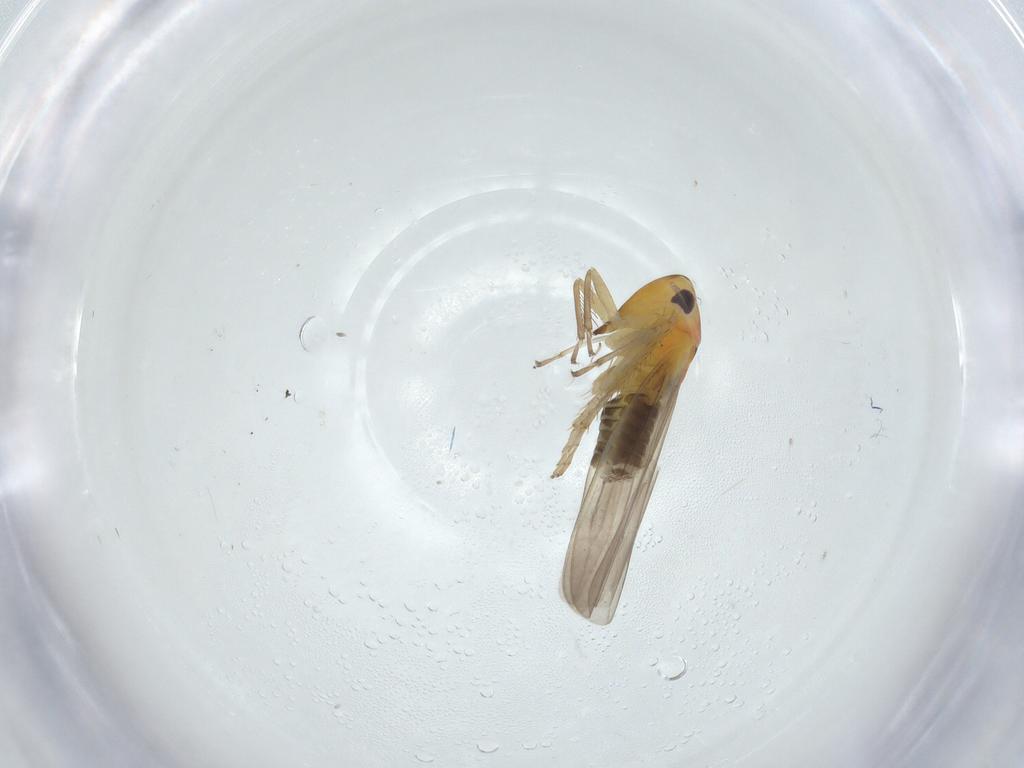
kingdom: Animalia
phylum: Arthropoda
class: Insecta
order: Hemiptera
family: Cicadellidae
